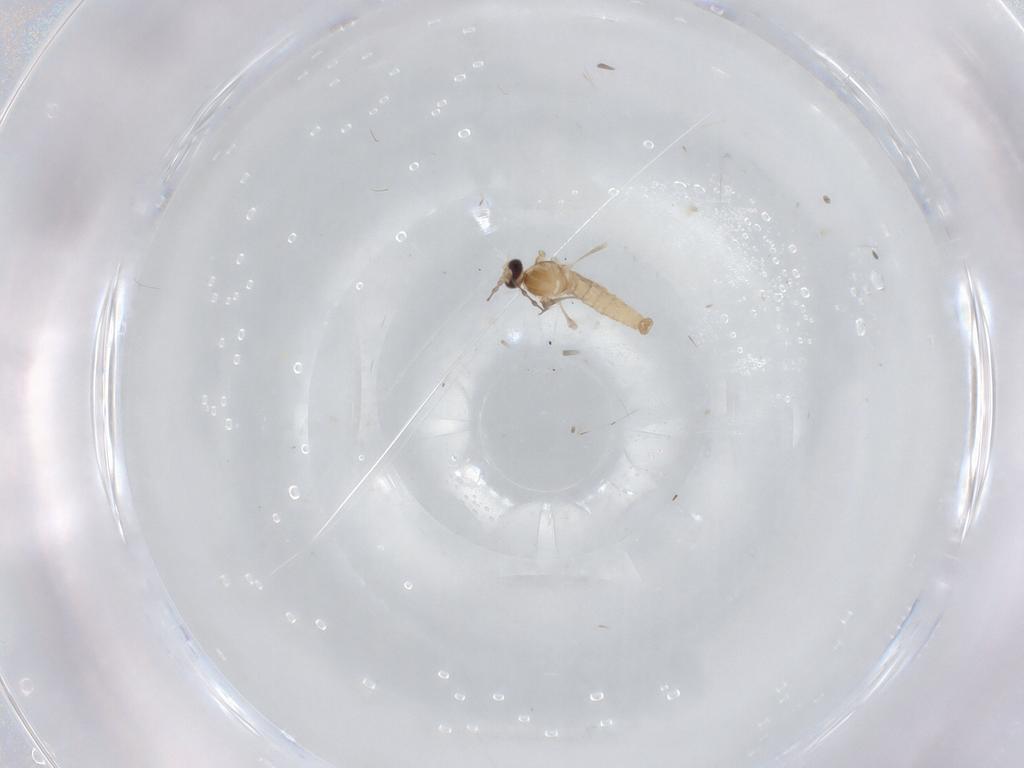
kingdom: Animalia
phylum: Arthropoda
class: Insecta
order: Diptera
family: Cecidomyiidae
